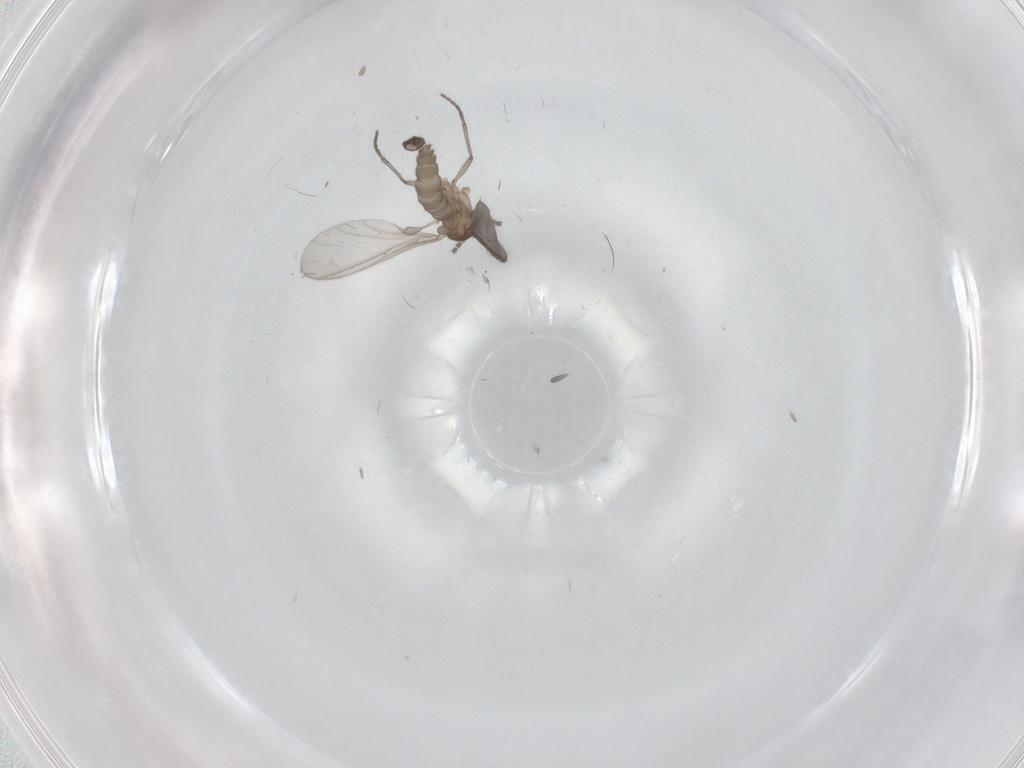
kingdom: Animalia
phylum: Arthropoda
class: Insecta
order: Diptera
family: Sciaridae
